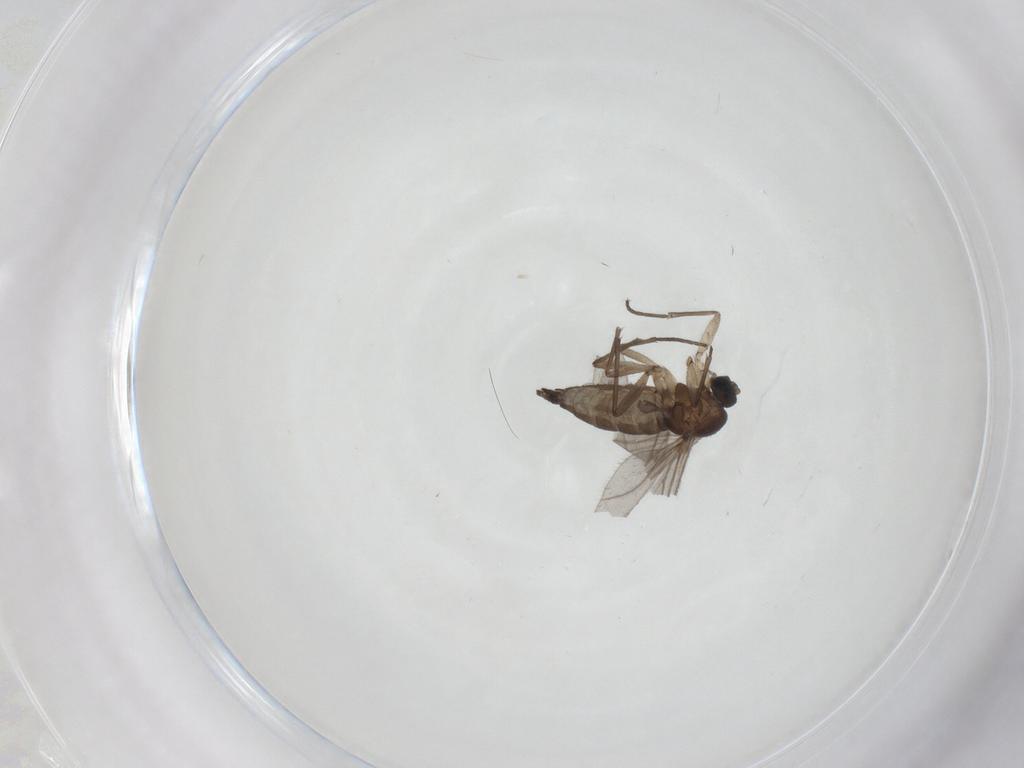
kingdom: Animalia
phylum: Arthropoda
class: Insecta
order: Diptera
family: Sciaridae
